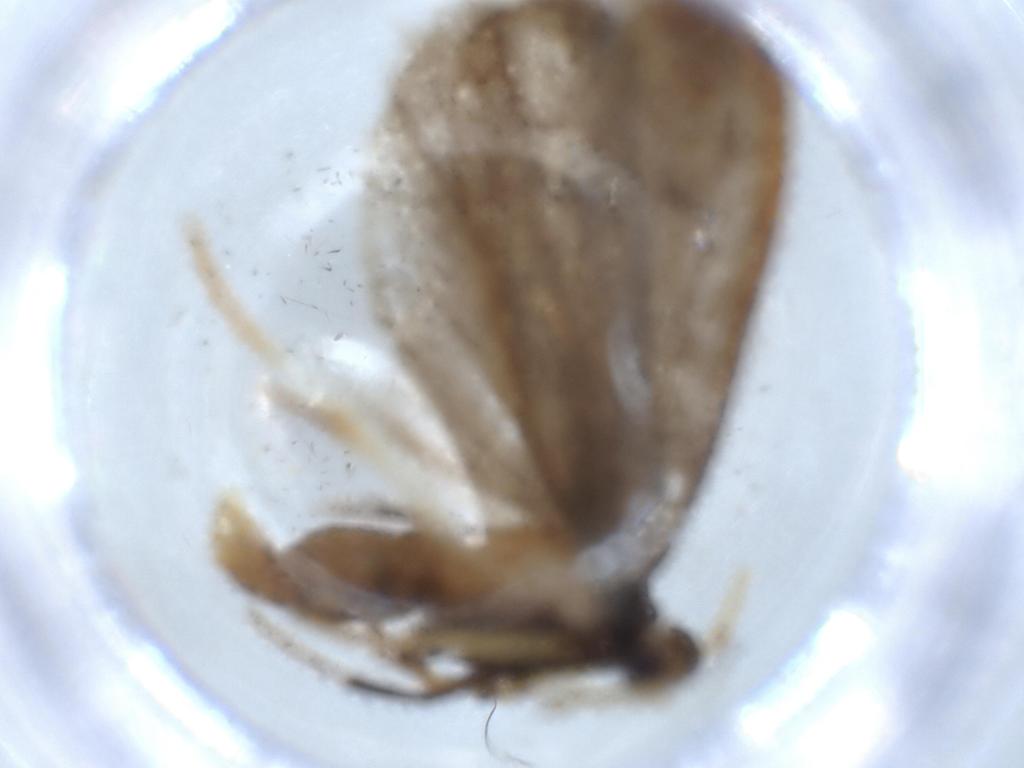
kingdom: Animalia
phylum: Arthropoda
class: Insecta
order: Lepidoptera
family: Lecithoceridae
